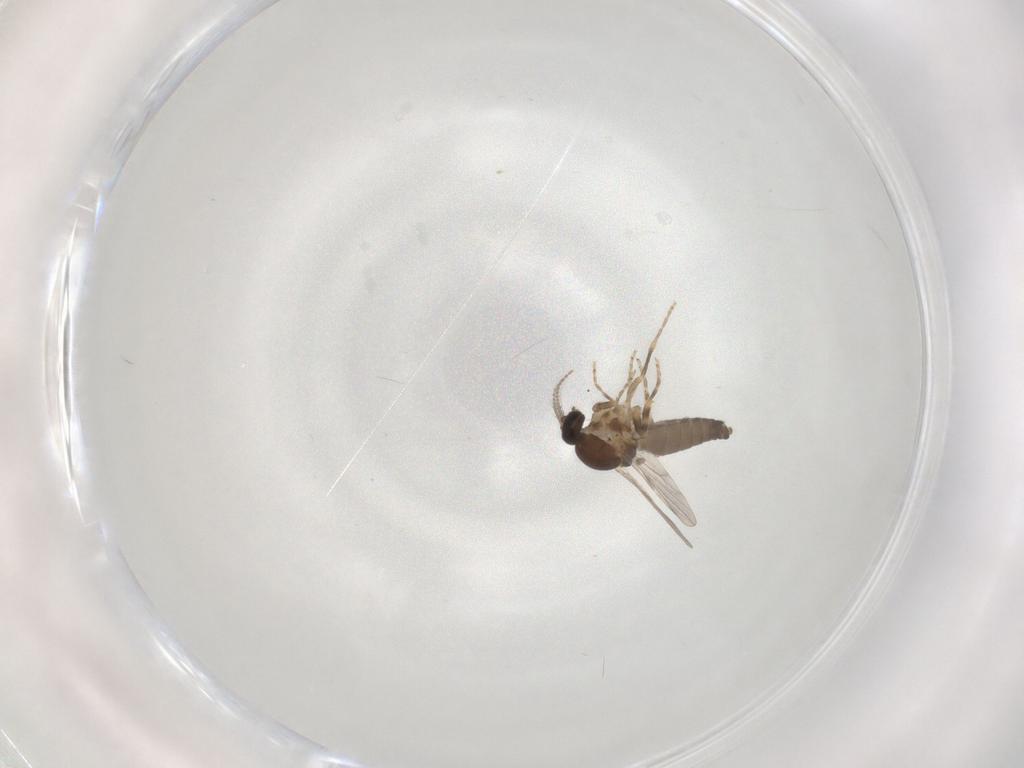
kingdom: Animalia
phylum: Arthropoda
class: Insecta
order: Diptera
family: Ceratopogonidae
